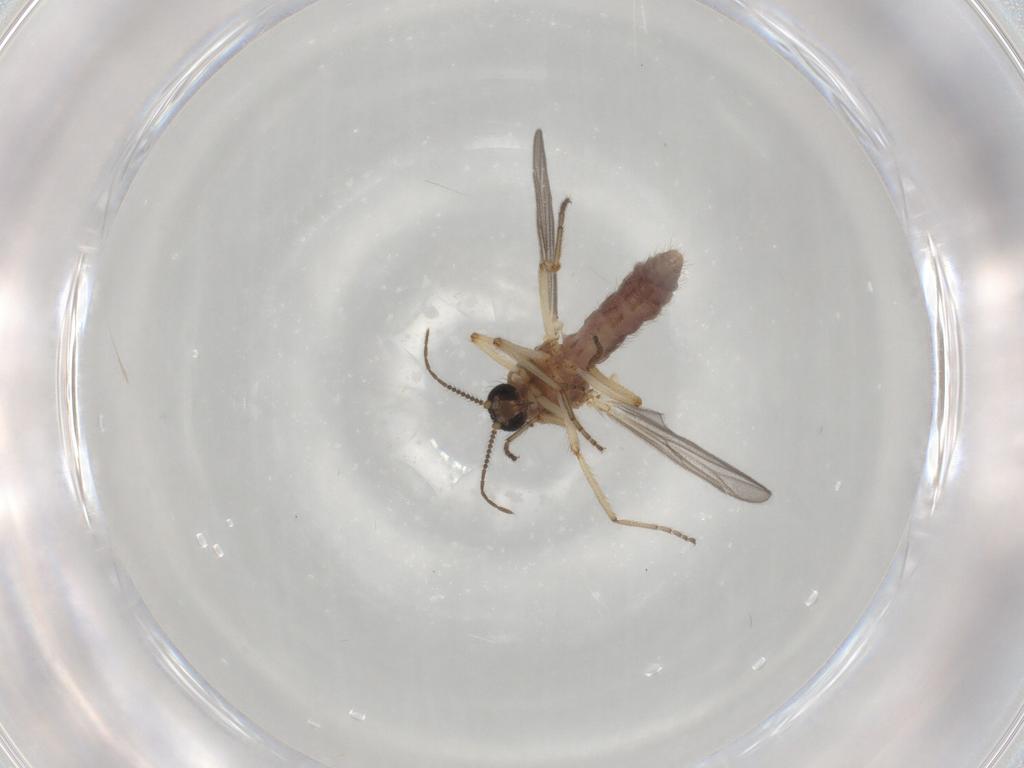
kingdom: Animalia
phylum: Arthropoda
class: Insecta
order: Diptera
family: Ceratopogonidae
